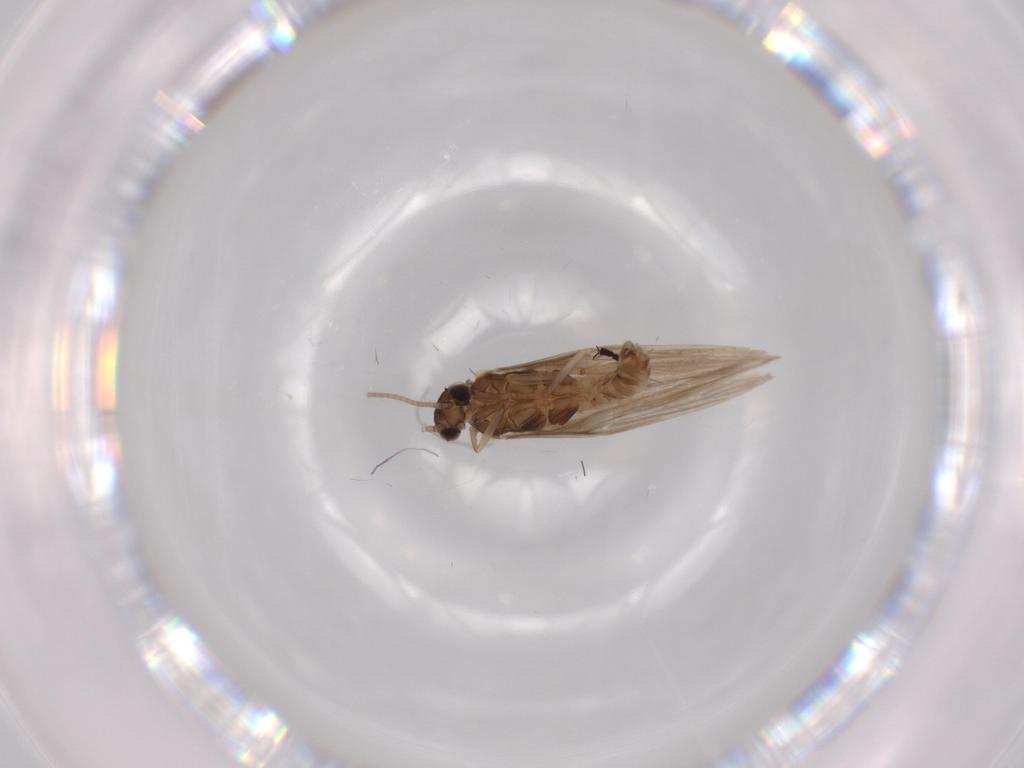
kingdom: Animalia
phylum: Arthropoda
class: Insecta
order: Trichoptera
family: Hydroptilidae
